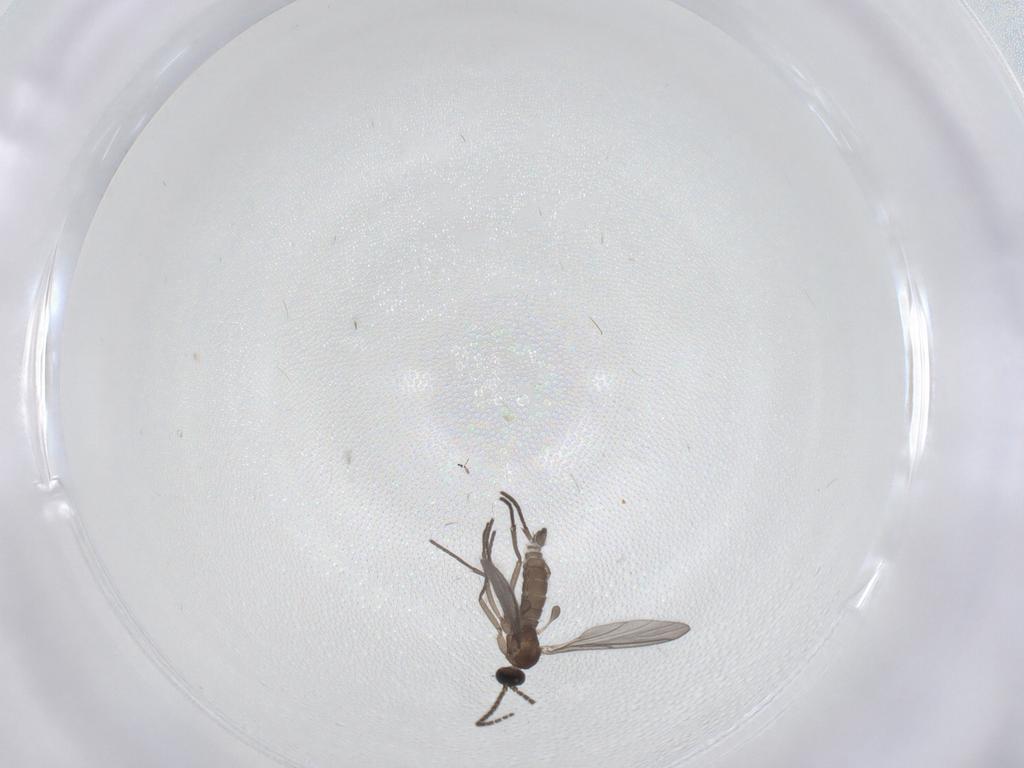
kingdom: Animalia
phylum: Arthropoda
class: Insecta
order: Diptera
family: Sciaridae
